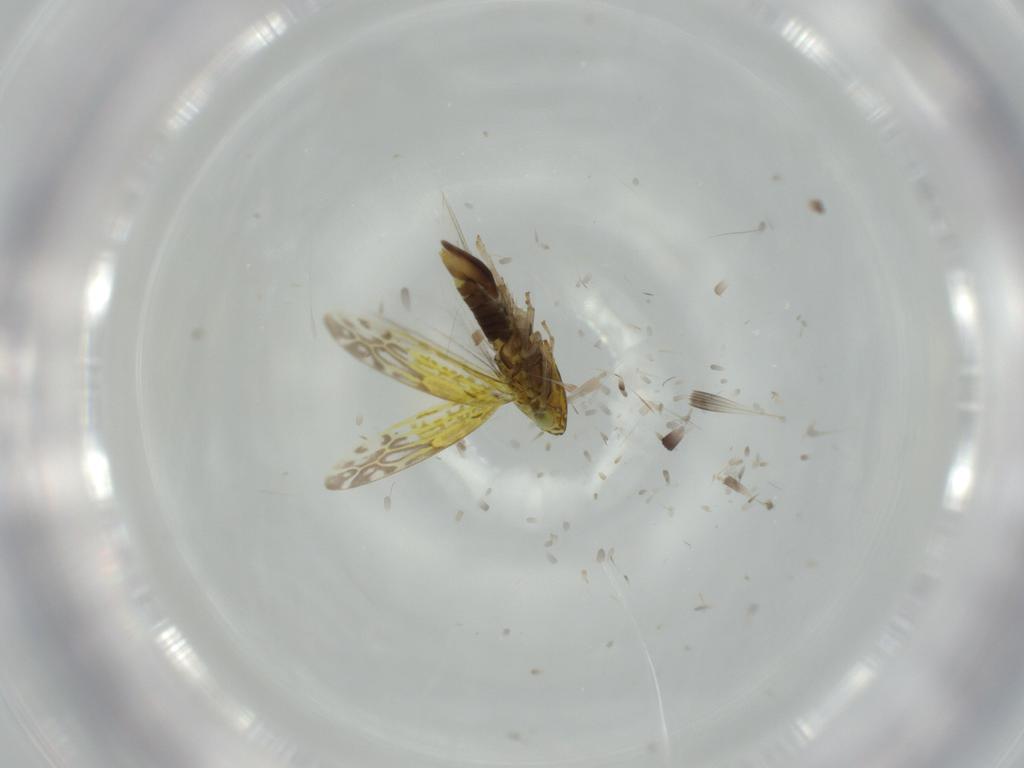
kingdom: Animalia
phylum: Arthropoda
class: Insecta
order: Hemiptera
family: Cicadellidae
